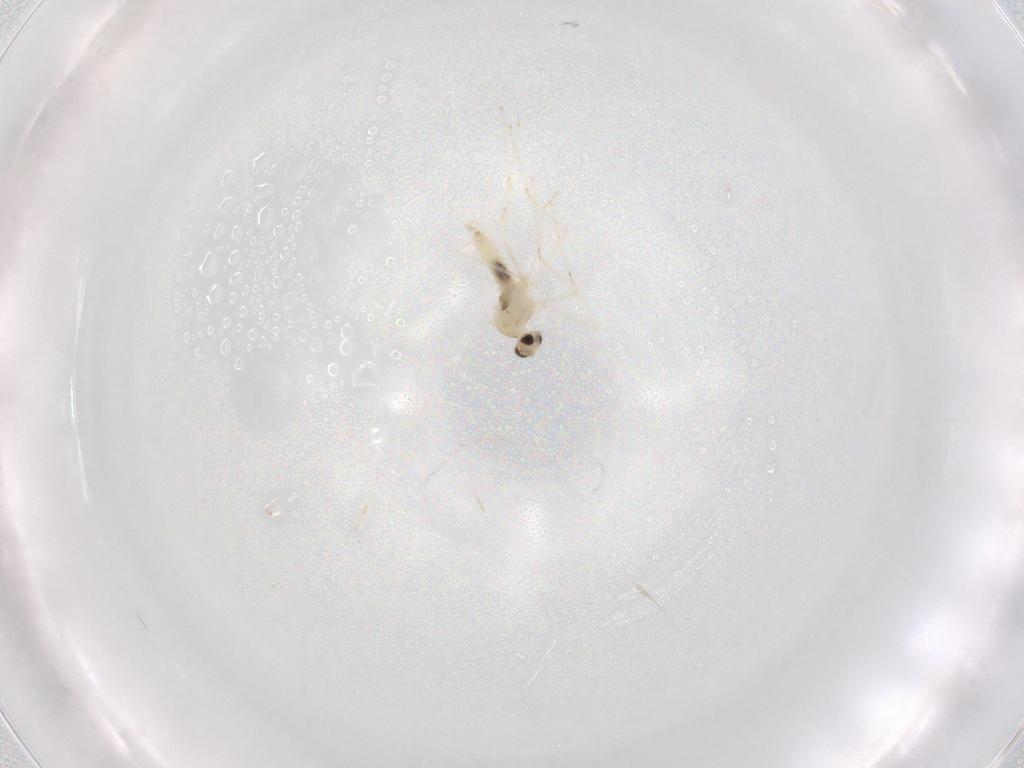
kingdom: Animalia
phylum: Arthropoda
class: Insecta
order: Diptera
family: Cecidomyiidae
